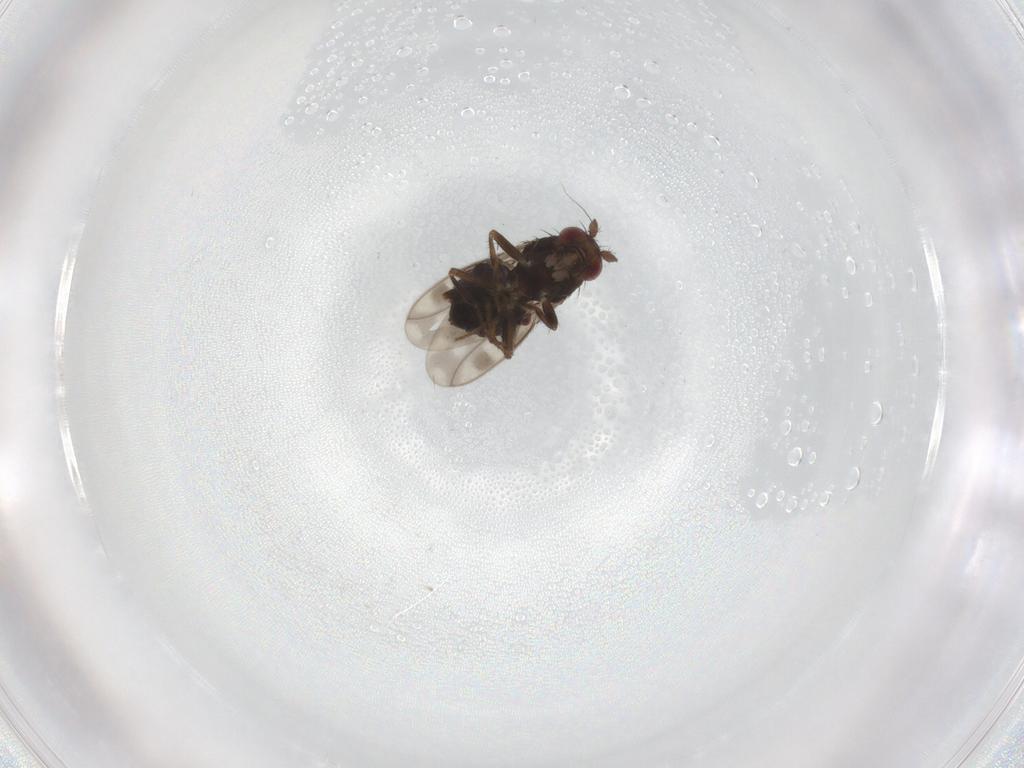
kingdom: Animalia
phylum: Arthropoda
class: Insecta
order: Diptera
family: Sphaeroceridae
